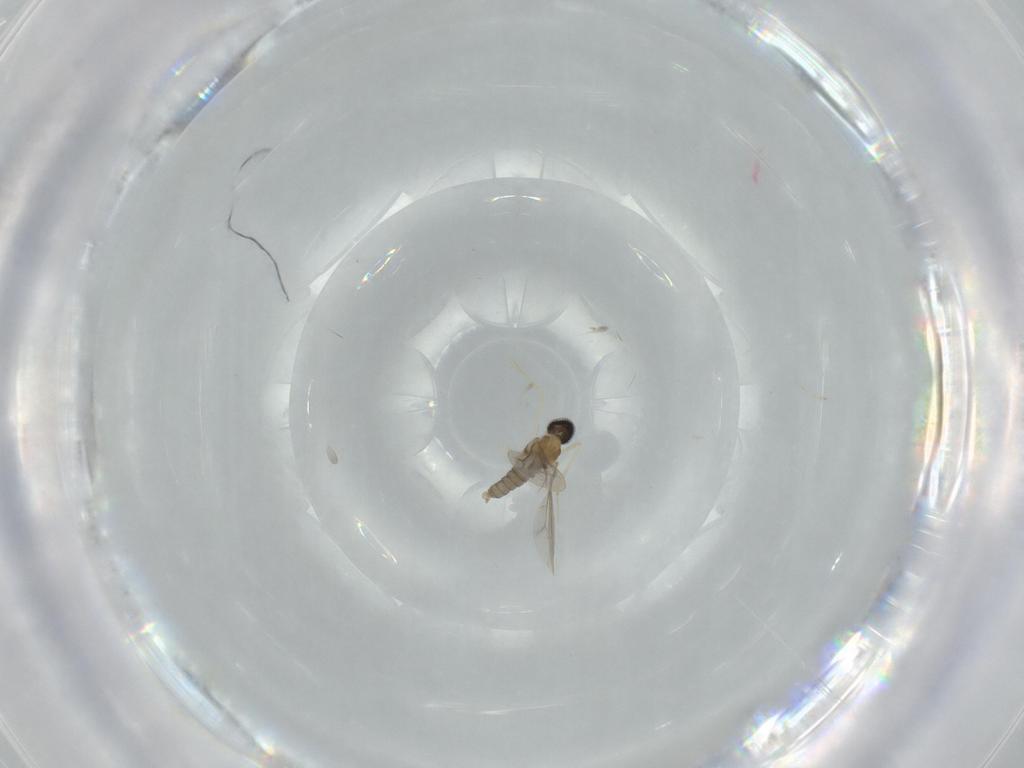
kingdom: Animalia
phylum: Arthropoda
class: Insecta
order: Diptera
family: Cecidomyiidae
